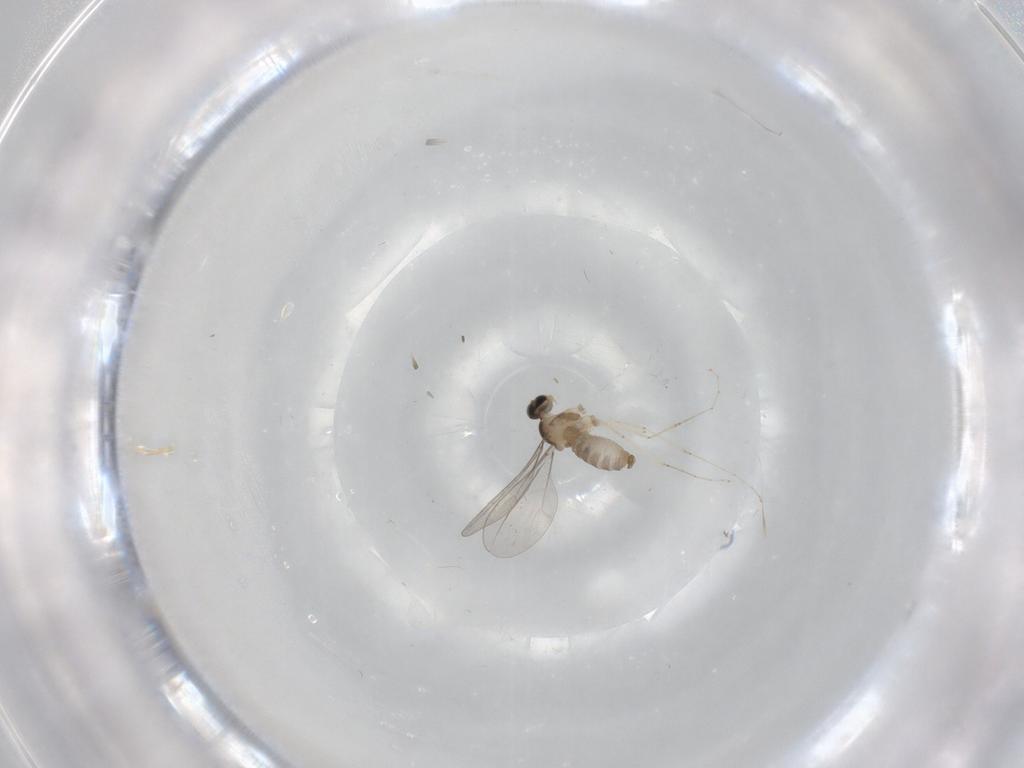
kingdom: Animalia
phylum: Arthropoda
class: Insecta
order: Diptera
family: Cecidomyiidae
